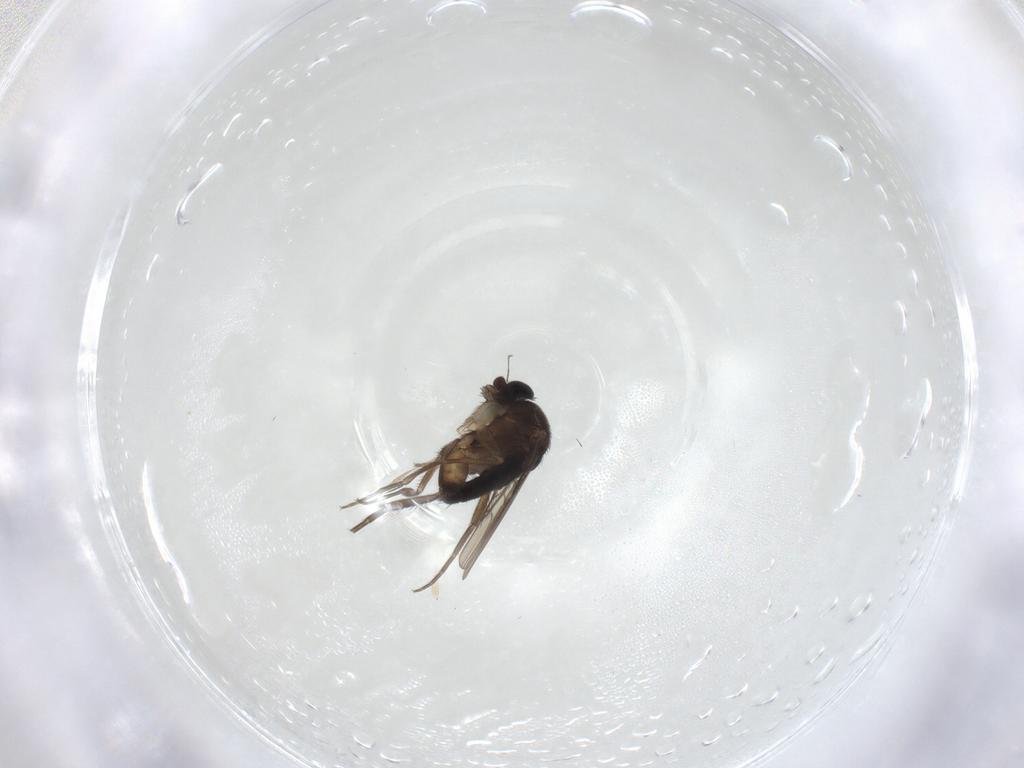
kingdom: Animalia
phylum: Arthropoda
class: Insecta
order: Diptera
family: Phoridae
